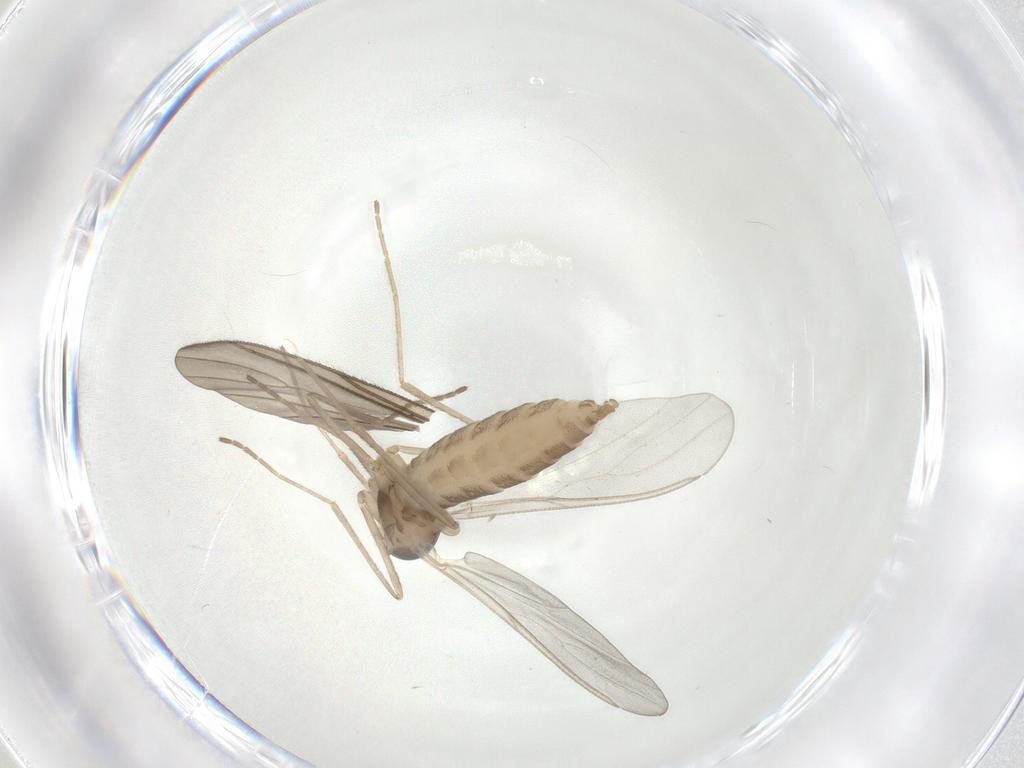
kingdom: Animalia
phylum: Arthropoda
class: Insecta
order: Diptera
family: Cecidomyiidae
